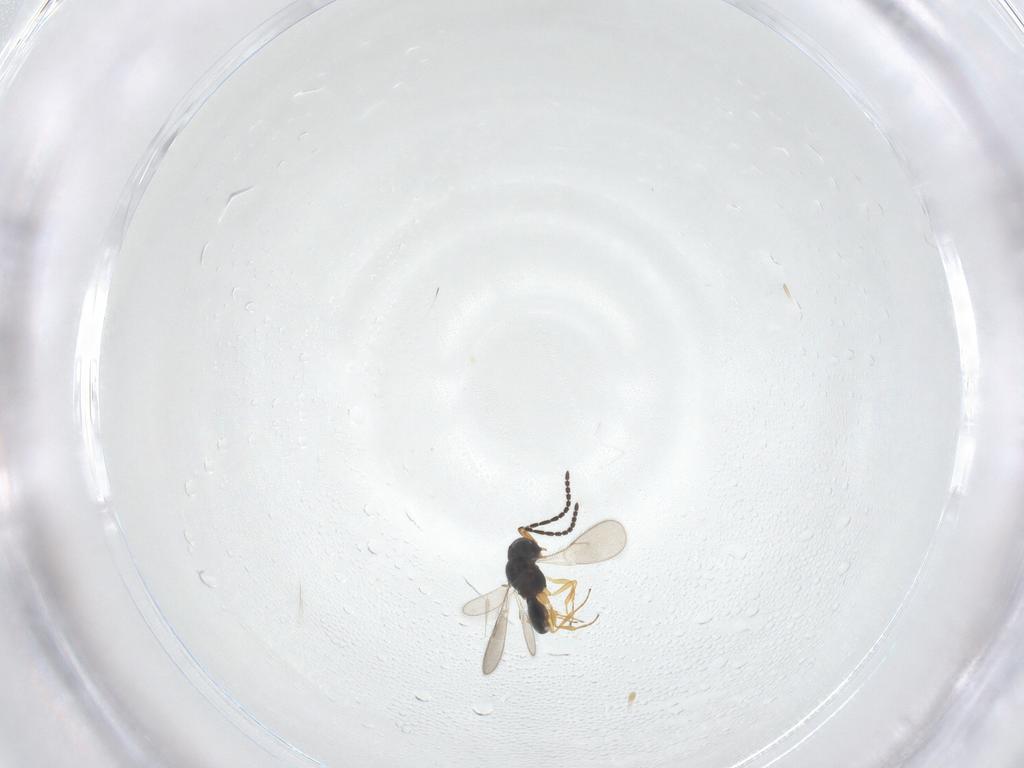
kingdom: Animalia
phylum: Arthropoda
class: Insecta
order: Hymenoptera
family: Scelionidae
